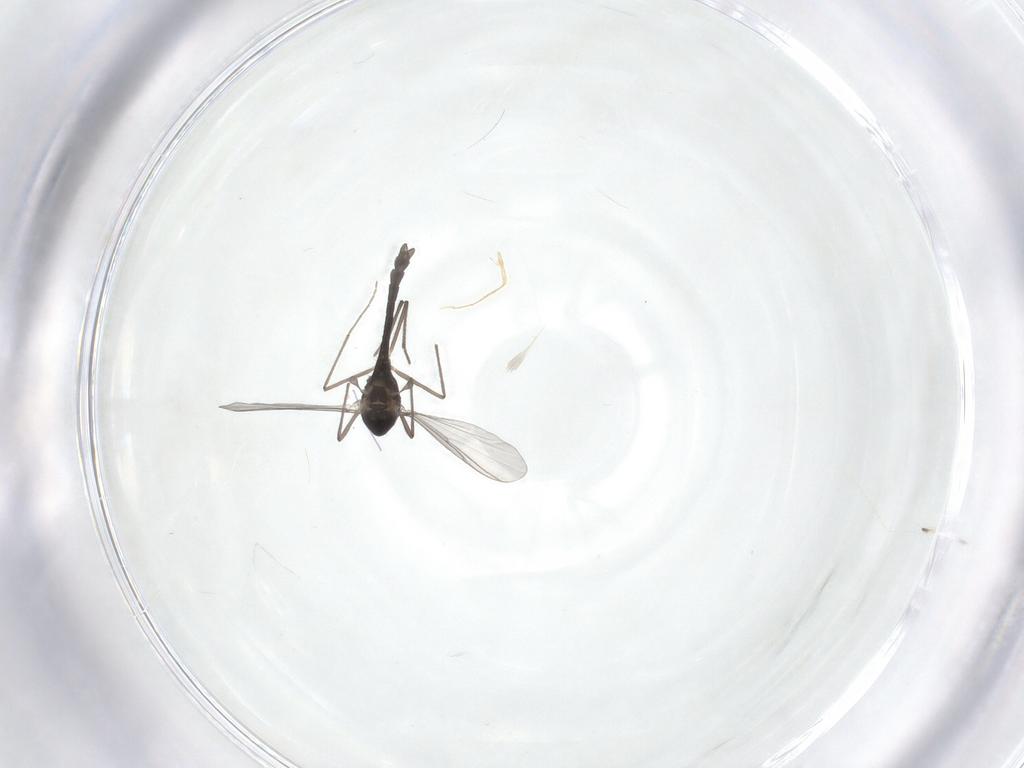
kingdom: Animalia
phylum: Arthropoda
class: Insecta
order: Diptera
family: Chironomidae
